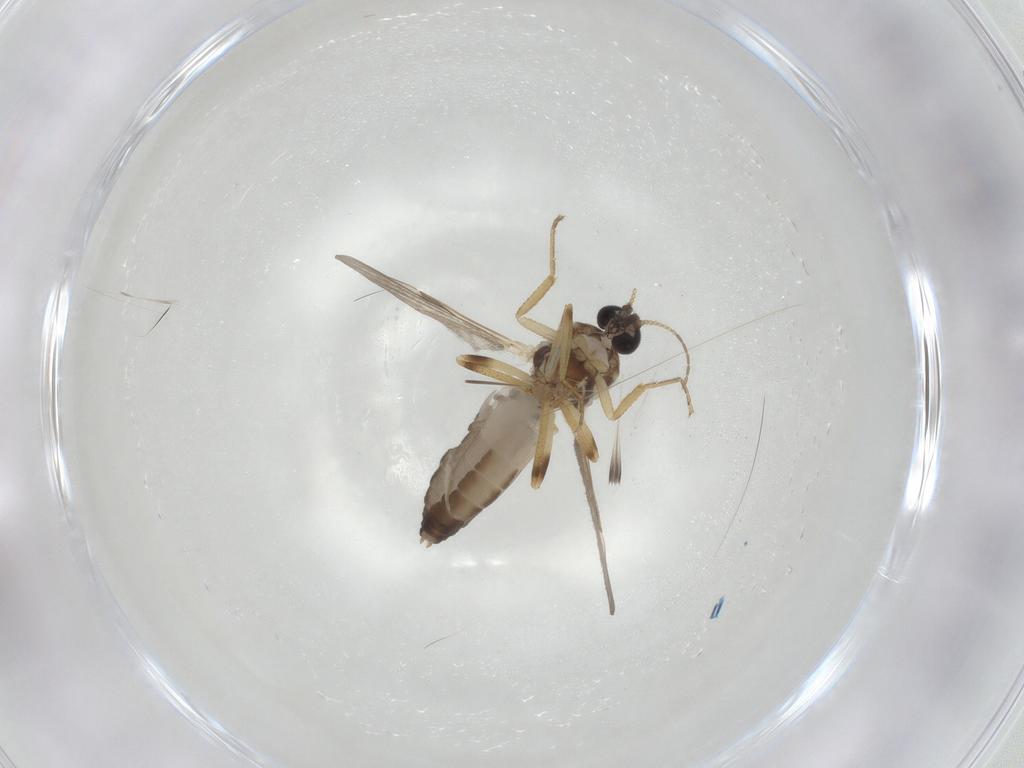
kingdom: Animalia
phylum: Arthropoda
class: Insecta
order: Diptera
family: Ceratopogonidae
